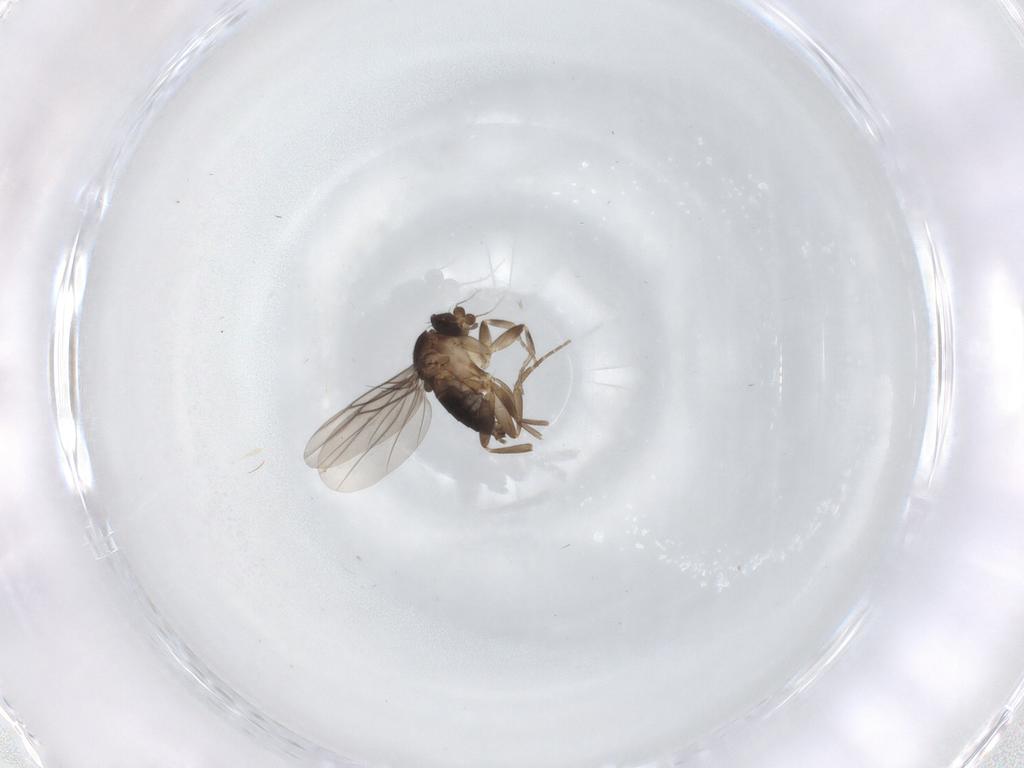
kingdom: Animalia
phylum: Arthropoda
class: Insecta
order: Diptera
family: Phoridae
